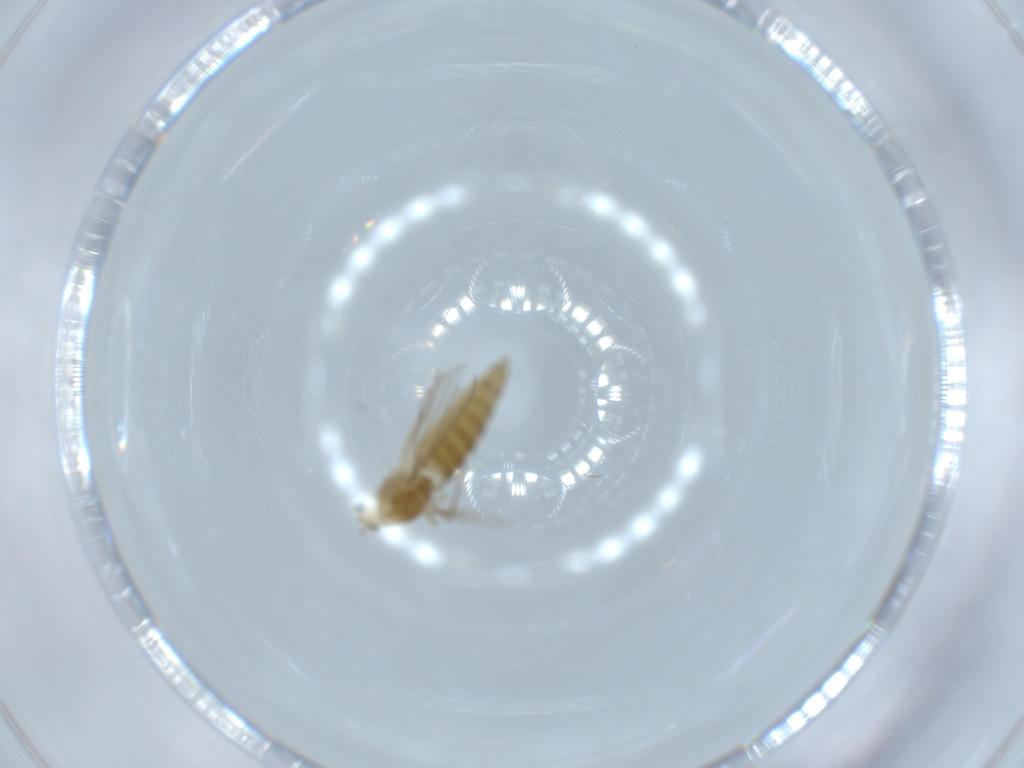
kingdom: Animalia
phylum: Arthropoda
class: Insecta
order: Diptera
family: Chironomidae
